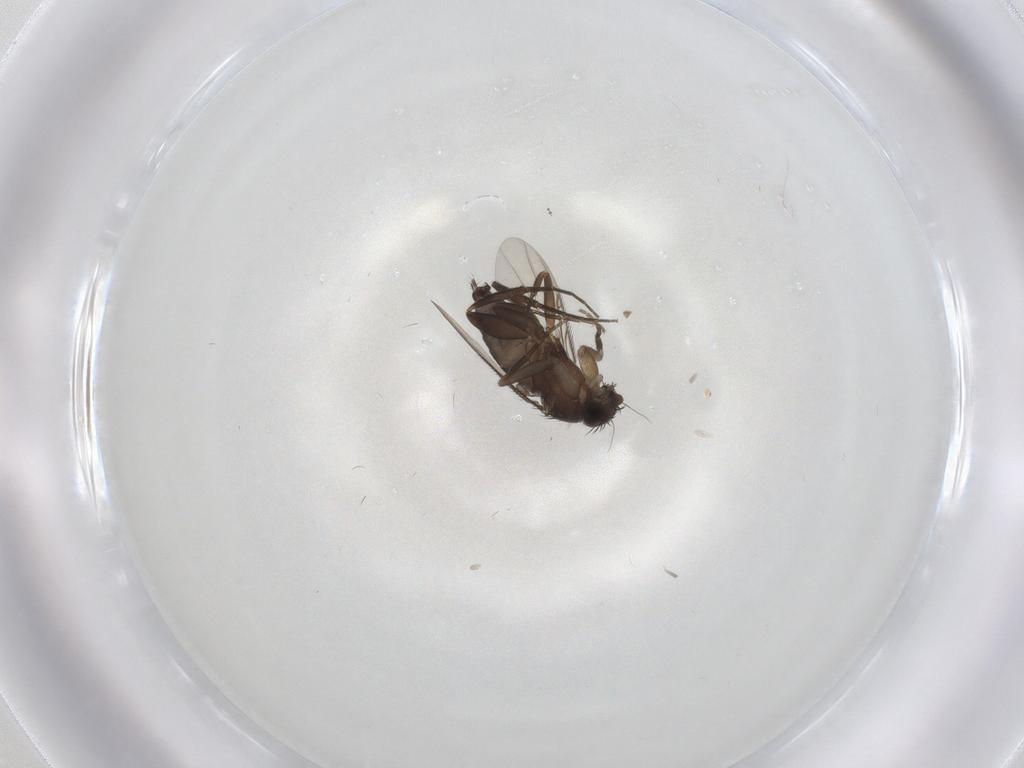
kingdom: Animalia
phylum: Arthropoda
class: Insecta
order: Diptera
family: Phoridae
